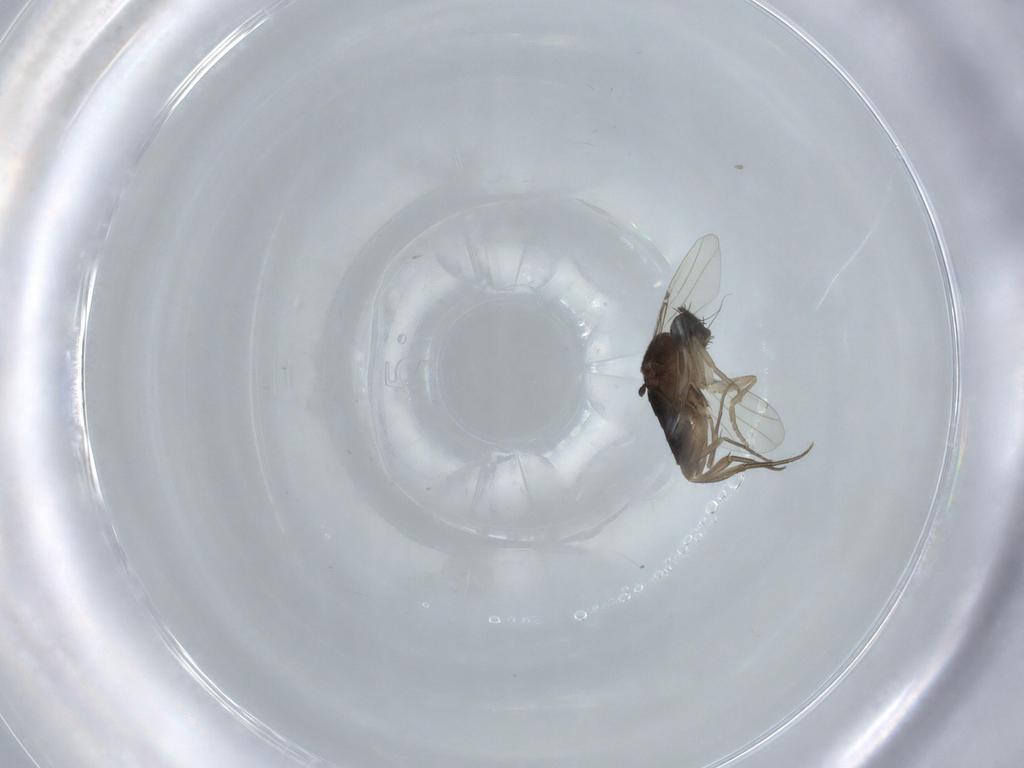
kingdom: Animalia
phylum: Arthropoda
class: Insecta
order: Diptera
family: Phoridae
